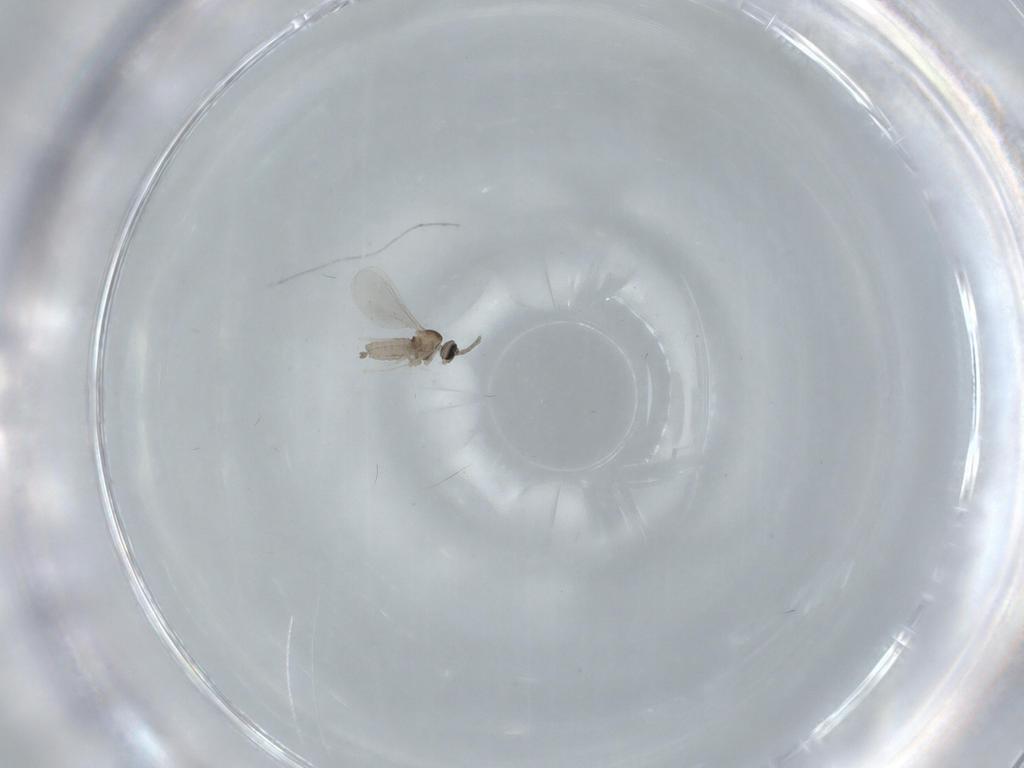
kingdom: Animalia
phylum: Arthropoda
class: Insecta
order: Diptera
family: Cecidomyiidae
